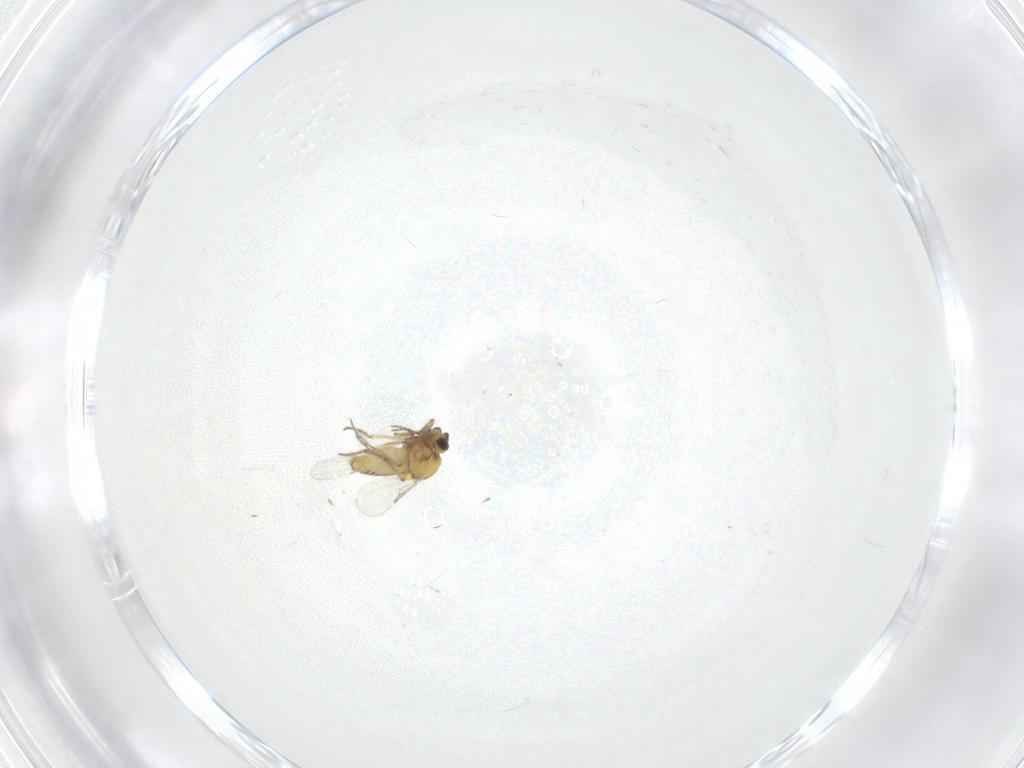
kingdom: Animalia
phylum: Arthropoda
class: Insecta
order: Diptera
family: Ceratopogonidae
